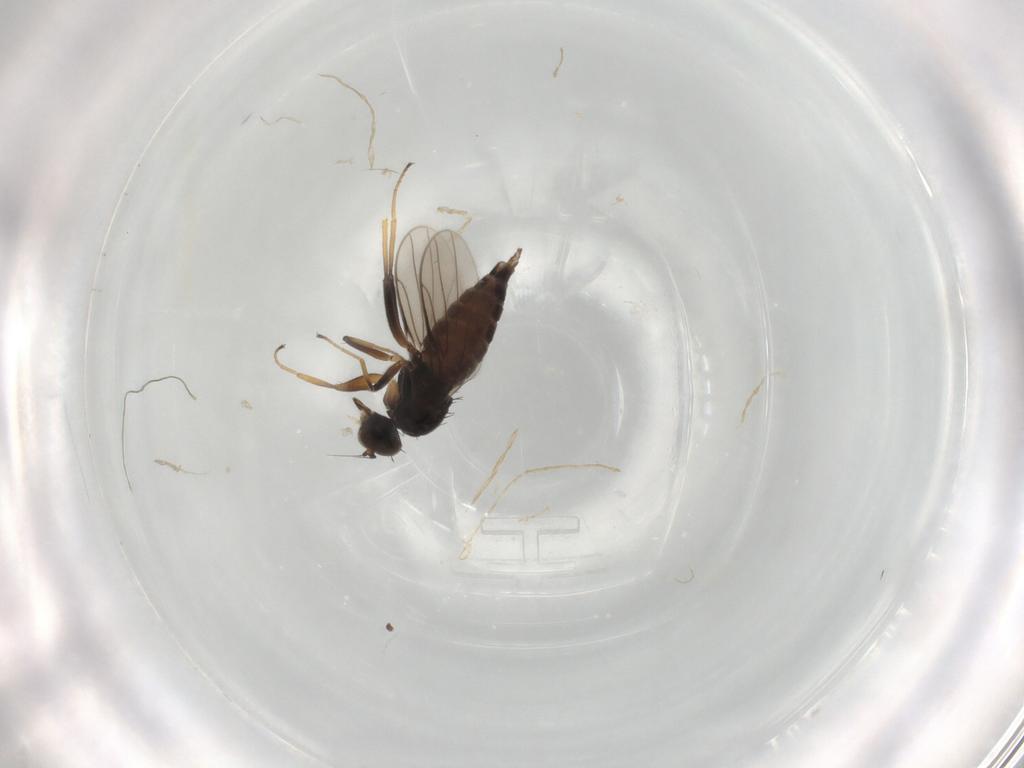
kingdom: Animalia
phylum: Arthropoda
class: Insecta
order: Diptera
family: Hybotidae
